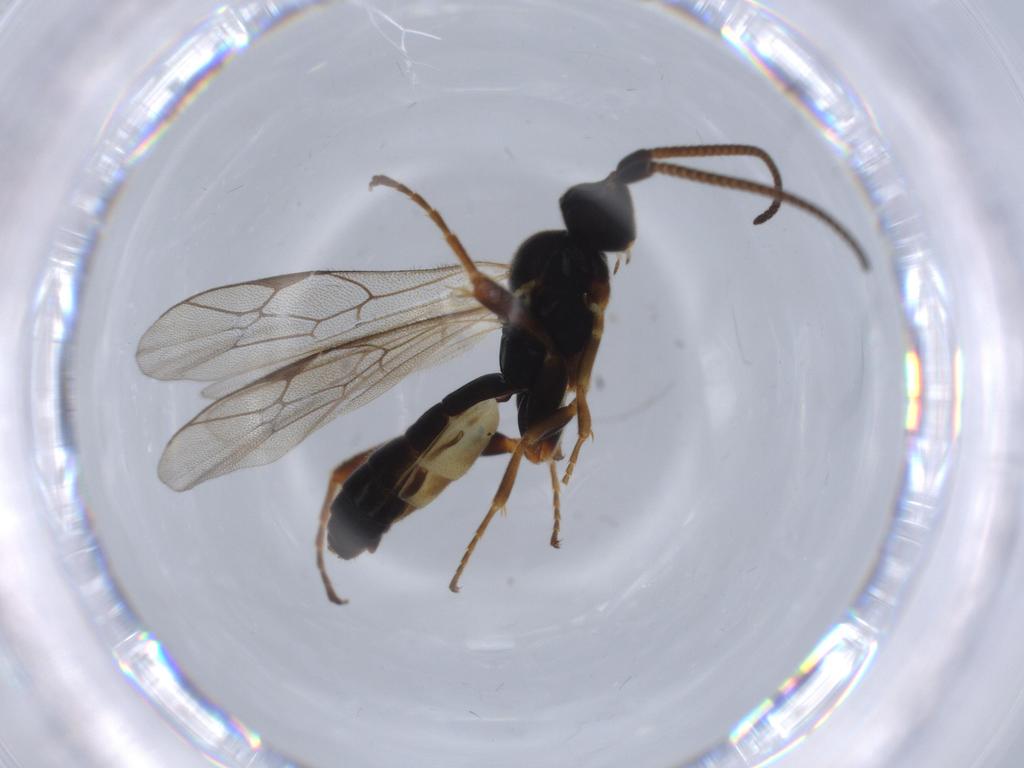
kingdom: Animalia
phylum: Arthropoda
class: Insecta
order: Hymenoptera
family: Ichneumonidae
